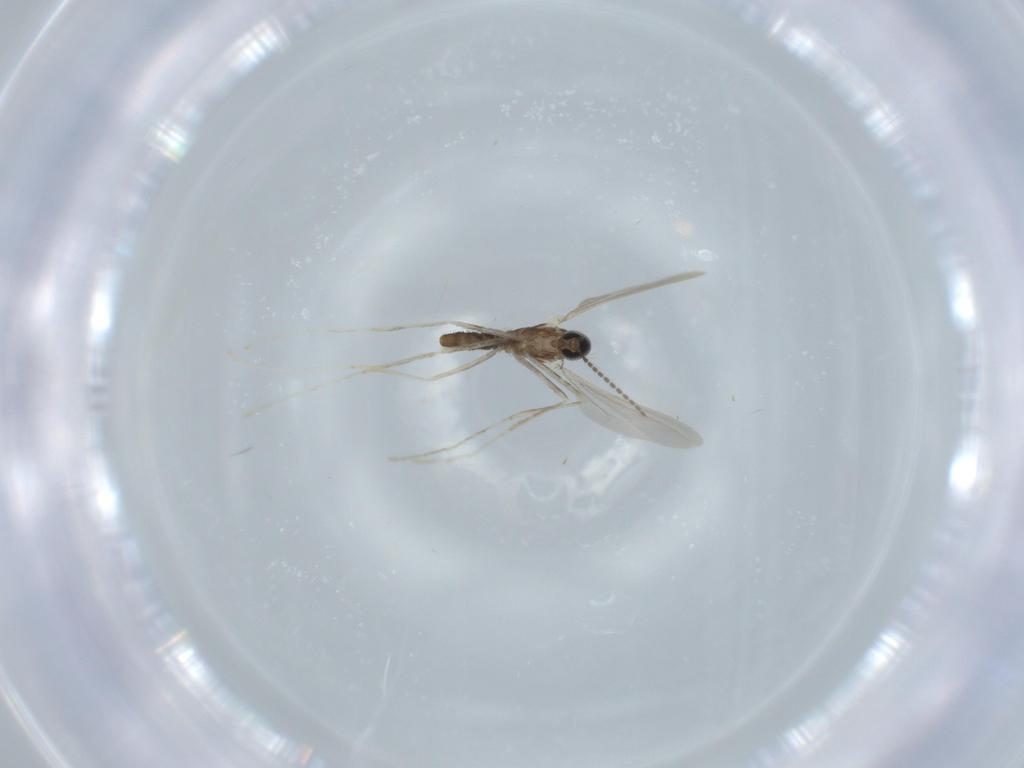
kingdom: Animalia
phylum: Arthropoda
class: Insecta
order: Diptera
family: Cecidomyiidae
